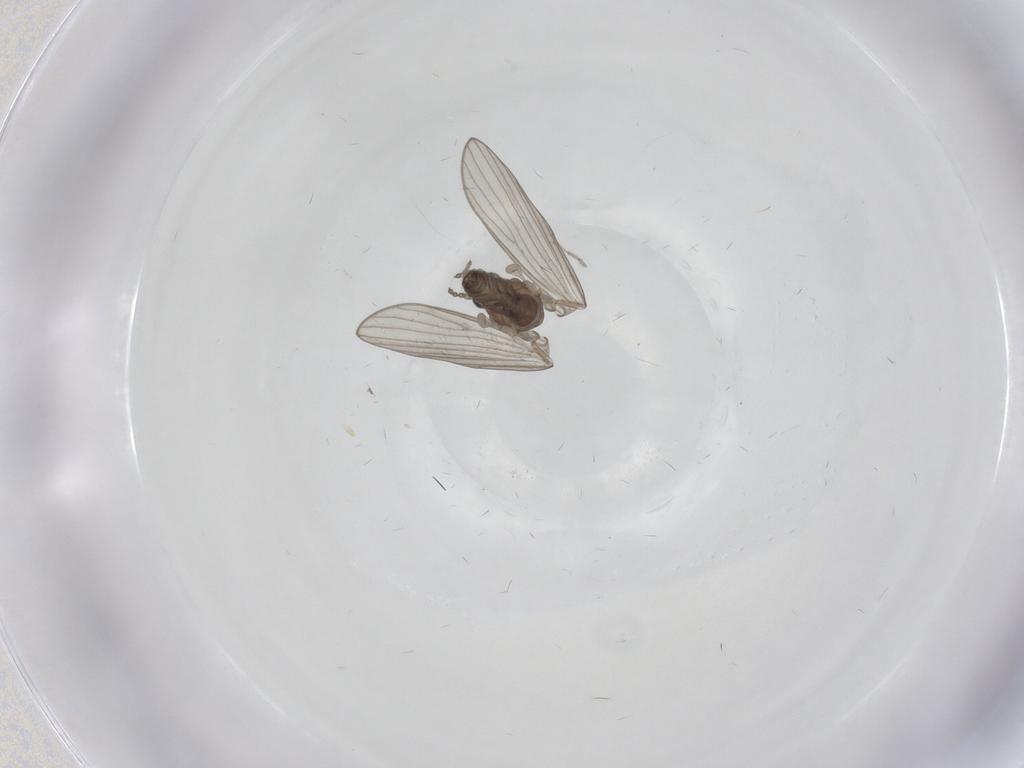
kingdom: Animalia
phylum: Arthropoda
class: Insecta
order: Diptera
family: Chironomidae
